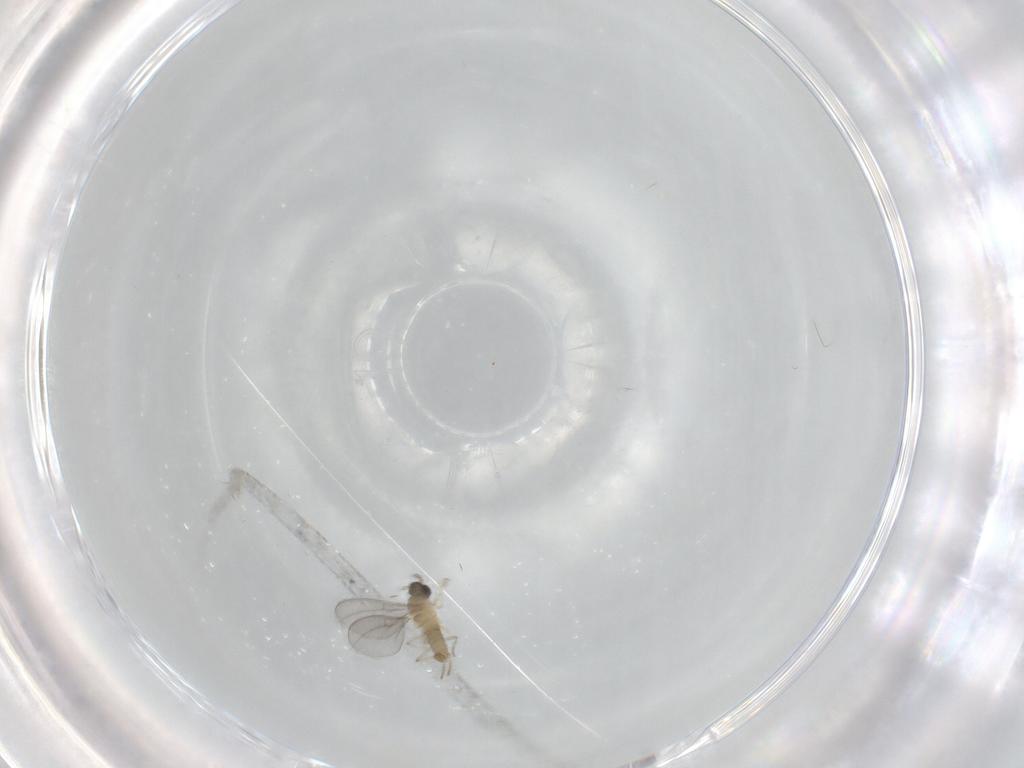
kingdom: Animalia
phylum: Arthropoda
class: Insecta
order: Diptera
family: Cecidomyiidae
